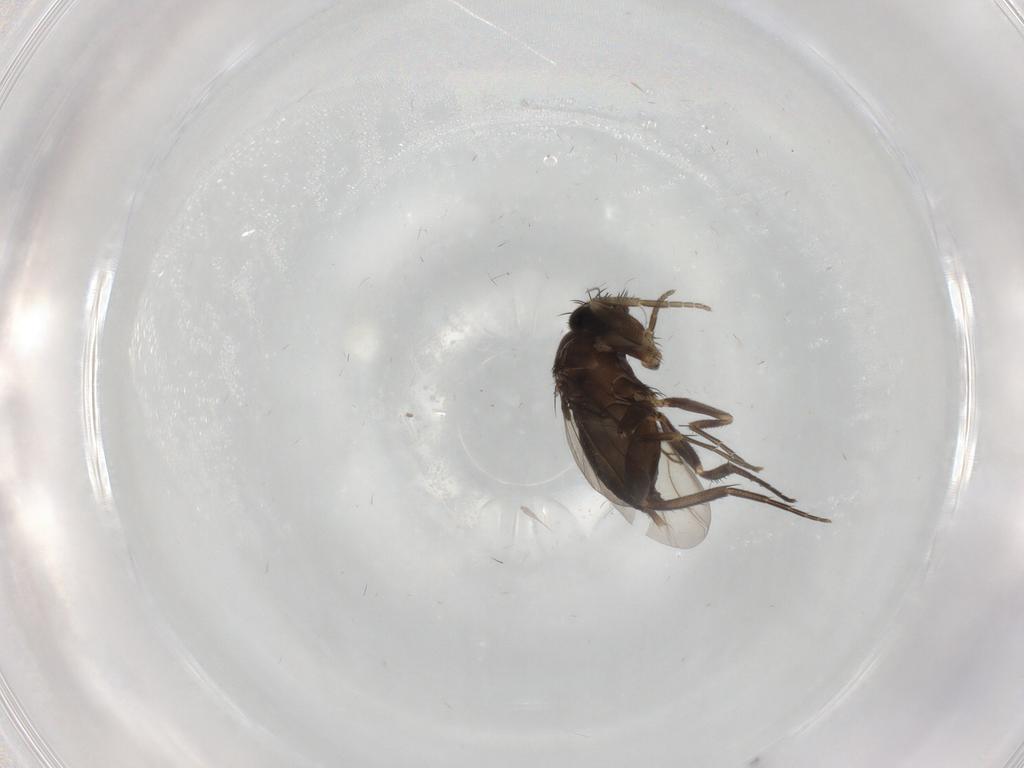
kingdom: Animalia
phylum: Arthropoda
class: Insecta
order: Diptera
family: Phoridae
